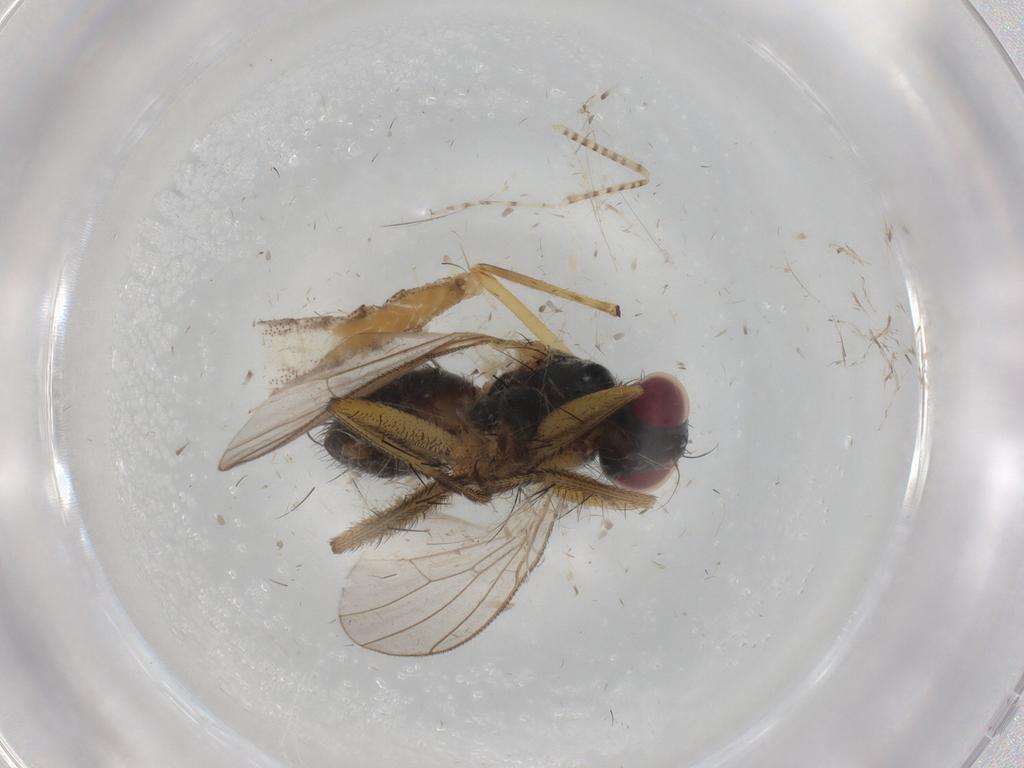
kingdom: Animalia
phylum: Arthropoda
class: Insecta
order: Diptera
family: Chaoboridae
